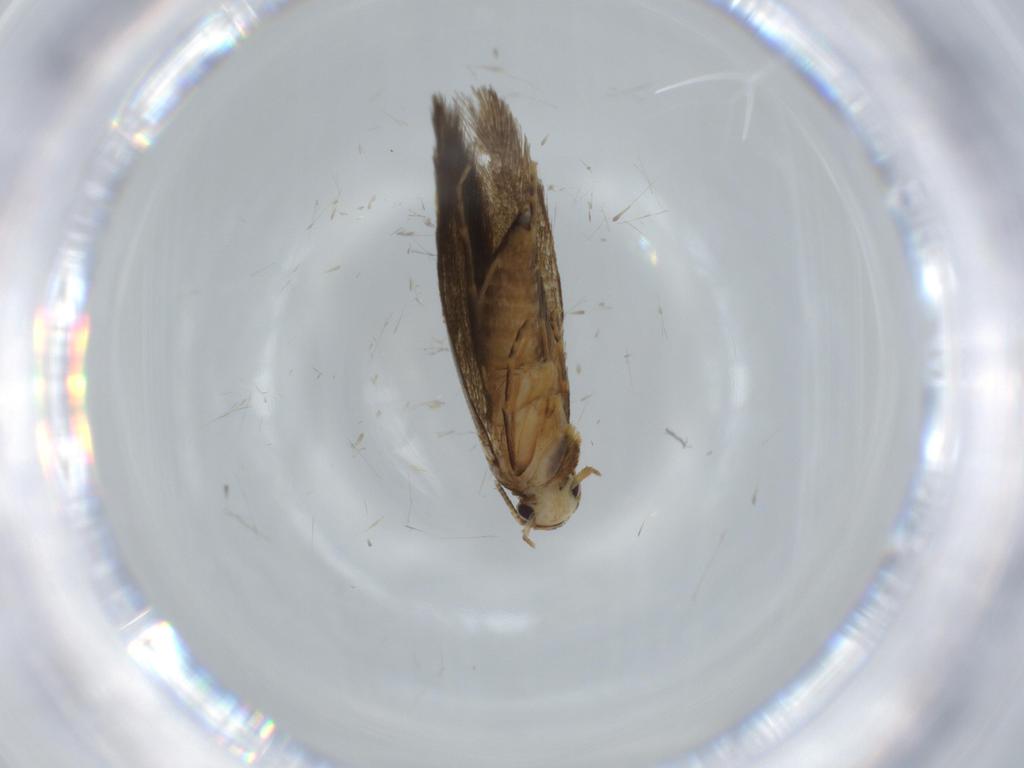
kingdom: Animalia
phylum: Arthropoda
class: Insecta
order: Lepidoptera
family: Tineidae
